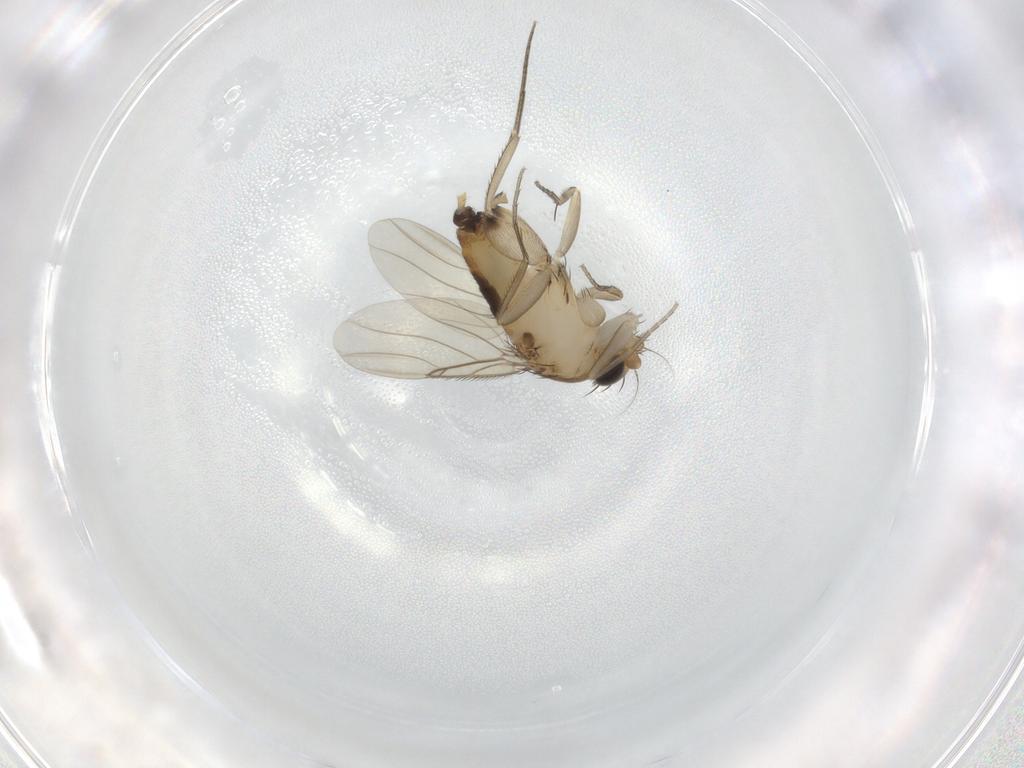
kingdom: Animalia
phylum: Arthropoda
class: Insecta
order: Diptera
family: Phoridae
